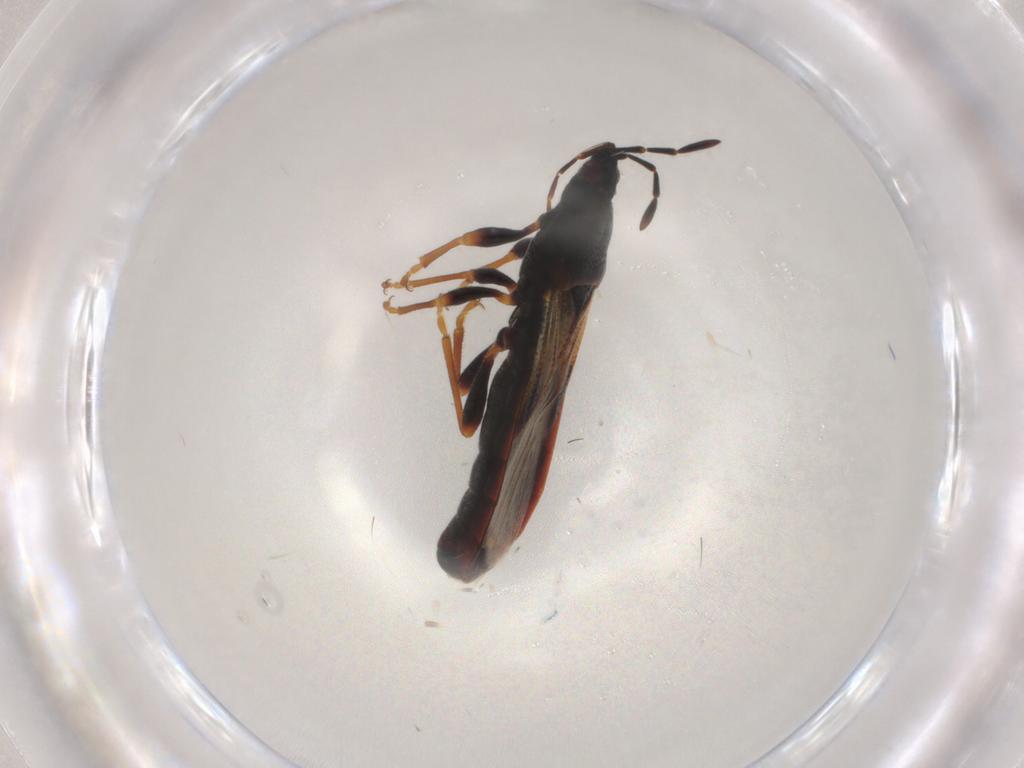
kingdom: Animalia
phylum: Arthropoda
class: Insecta
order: Hemiptera
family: Blissidae
